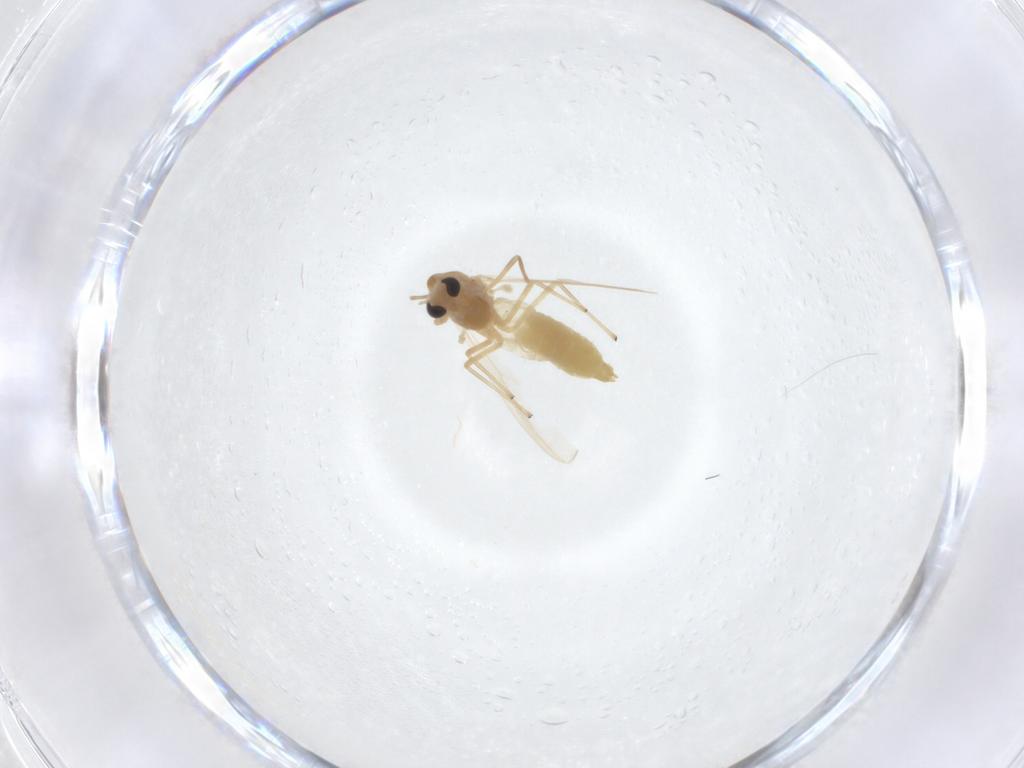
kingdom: Animalia
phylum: Arthropoda
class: Insecta
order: Diptera
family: Chironomidae
